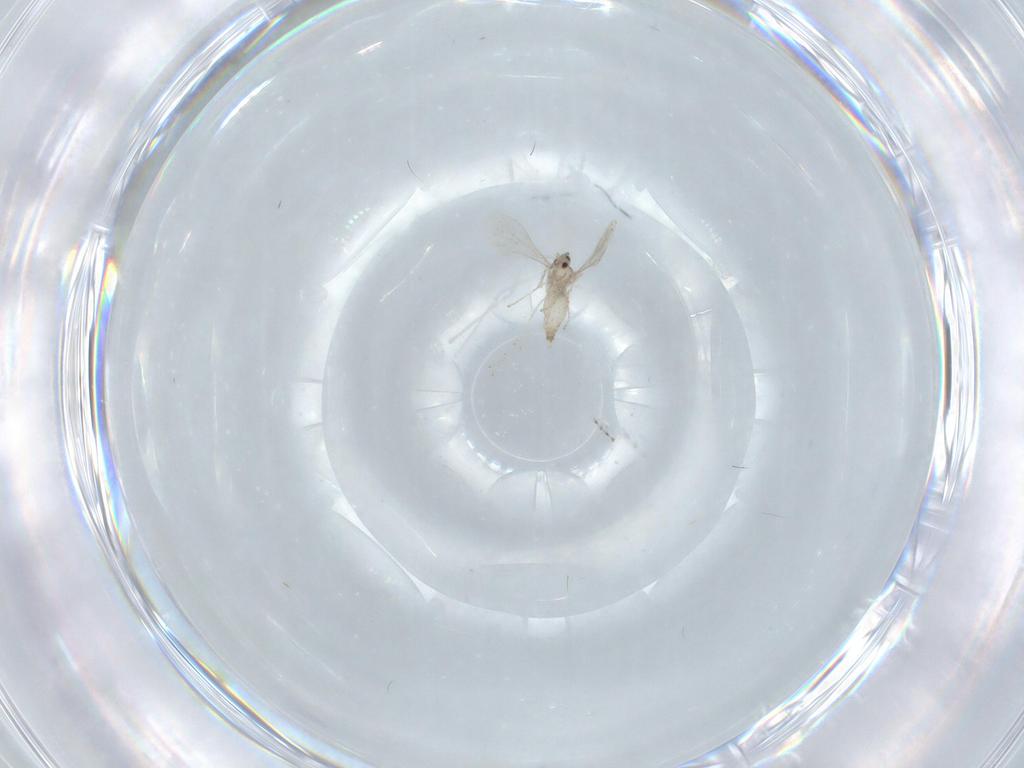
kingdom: Animalia
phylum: Arthropoda
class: Insecta
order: Diptera
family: Cecidomyiidae
